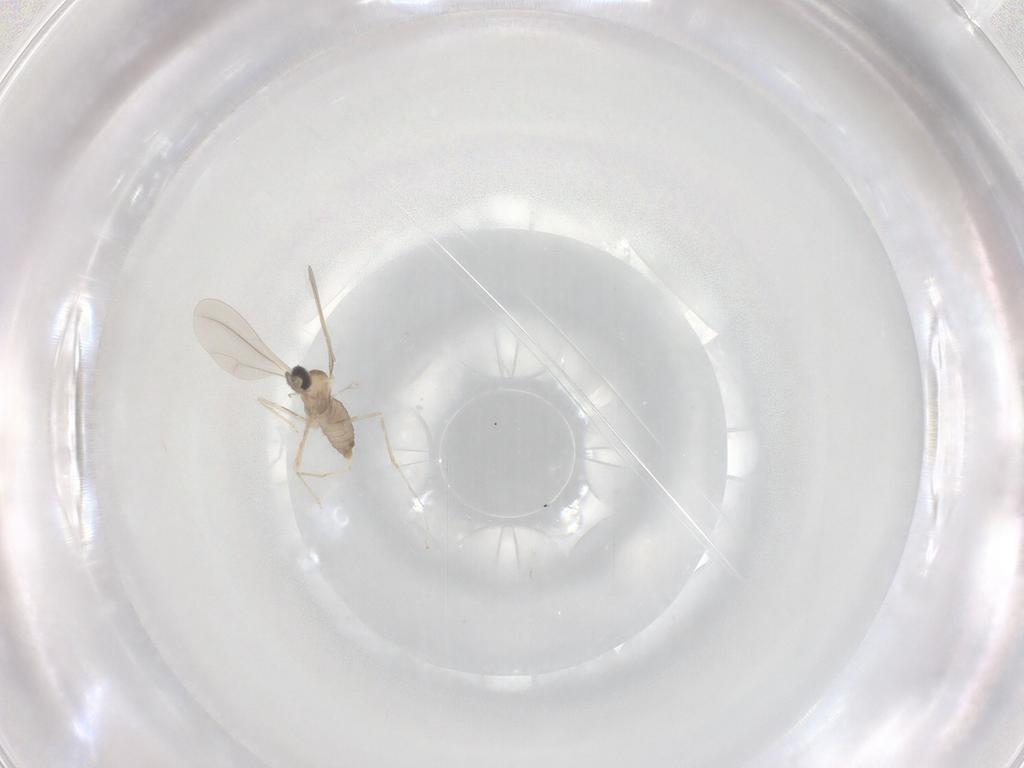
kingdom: Animalia
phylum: Arthropoda
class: Insecta
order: Diptera
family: Cecidomyiidae
